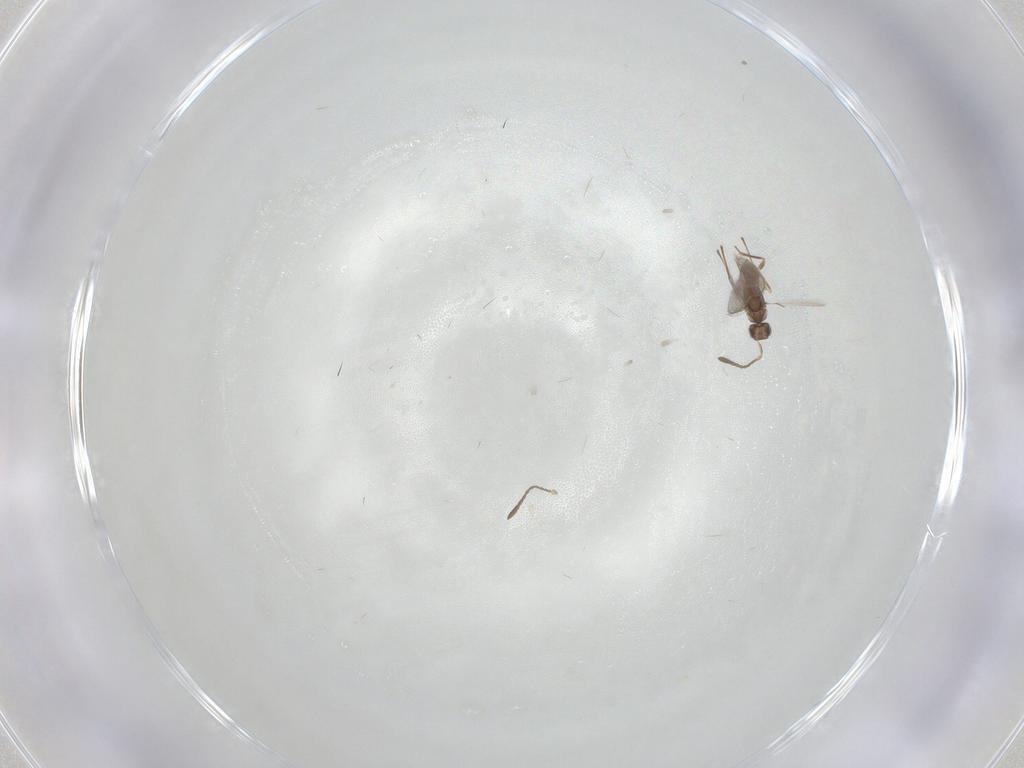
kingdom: Animalia
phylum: Arthropoda
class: Insecta
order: Hymenoptera
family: Mymaridae
